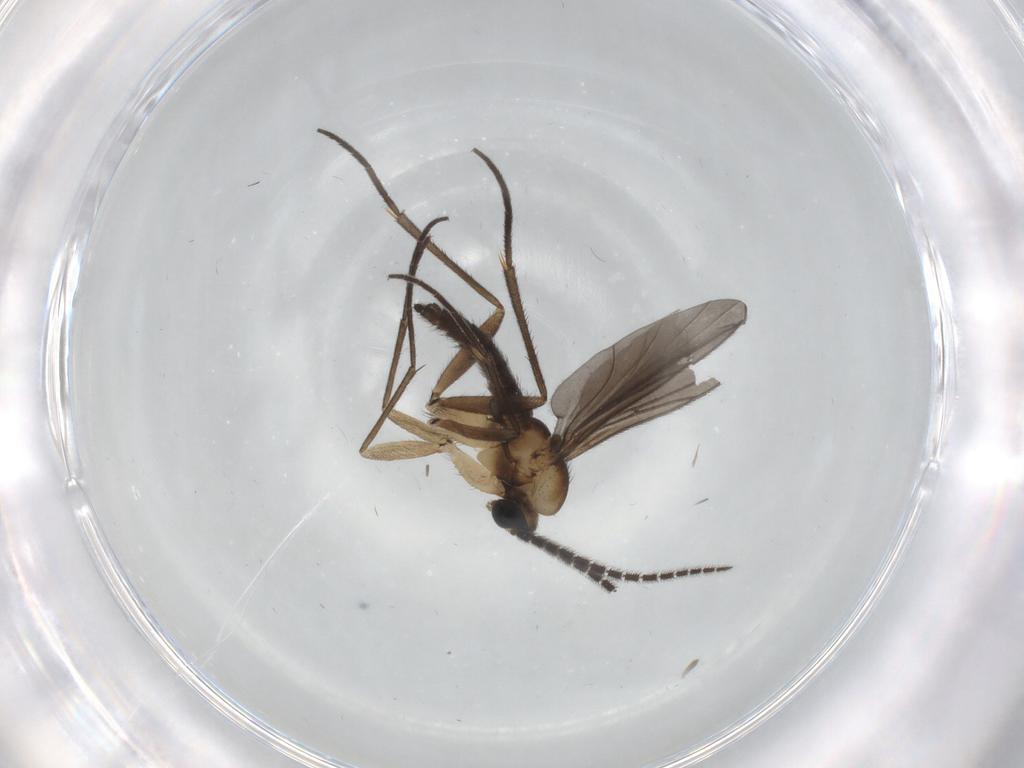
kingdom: Animalia
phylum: Arthropoda
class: Insecta
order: Diptera
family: Sciaridae
